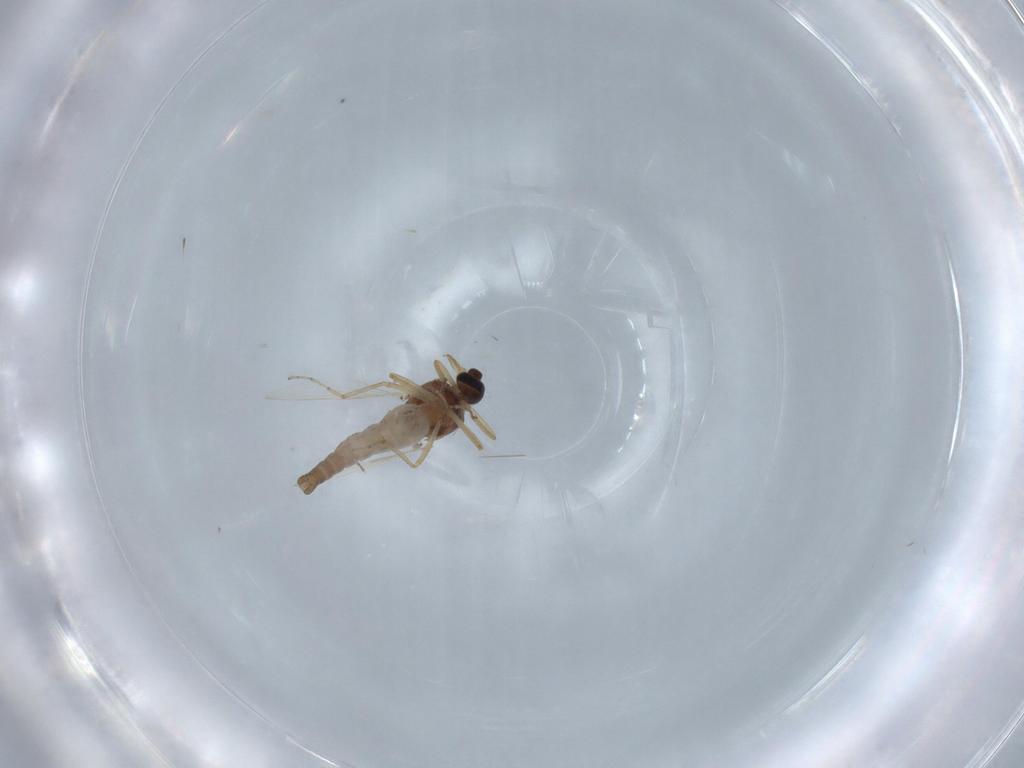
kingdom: Animalia
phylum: Arthropoda
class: Insecta
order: Diptera
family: Ceratopogonidae
